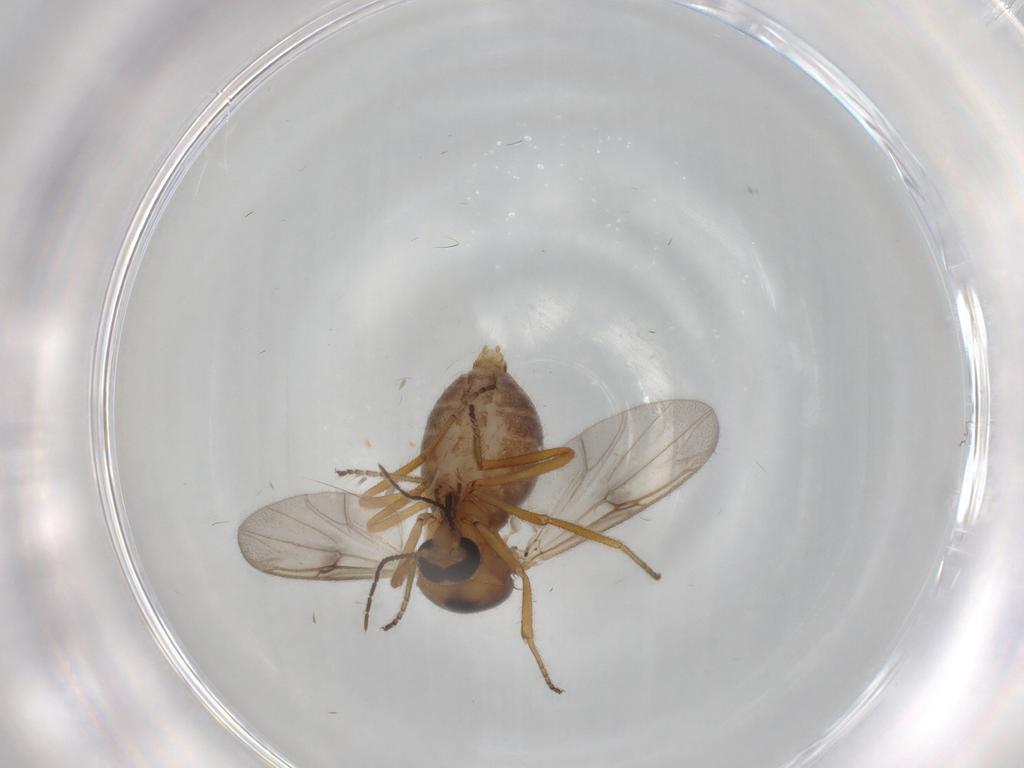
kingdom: Animalia
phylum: Arthropoda
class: Insecta
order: Diptera
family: Ceratopogonidae
